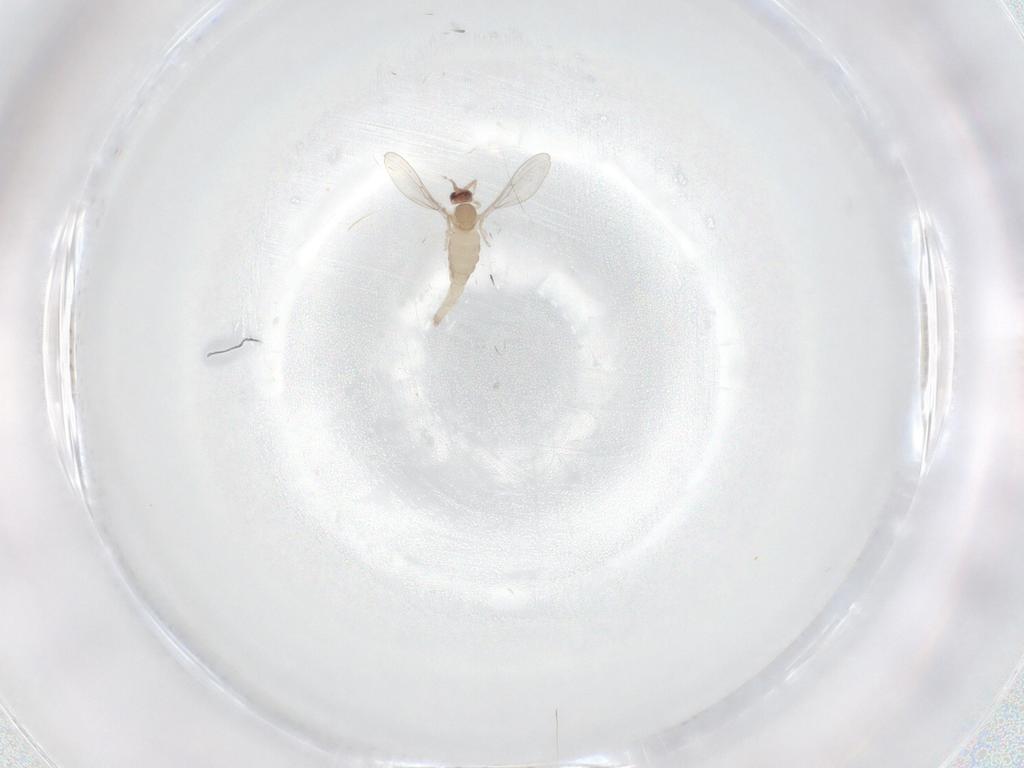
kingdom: Animalia
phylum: Arthropoda
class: Insecta
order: Diptera
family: Cecidomyiidae
